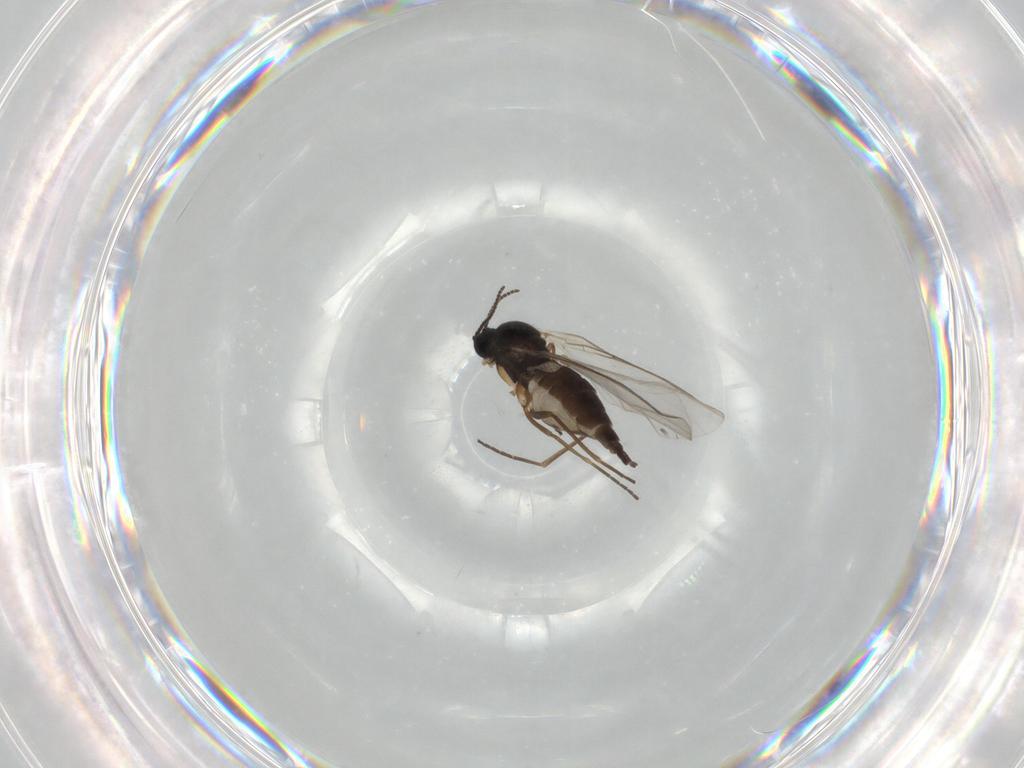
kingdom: Animalia
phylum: Arthropoda
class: Insecta
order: Diptera
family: Sciaridae
